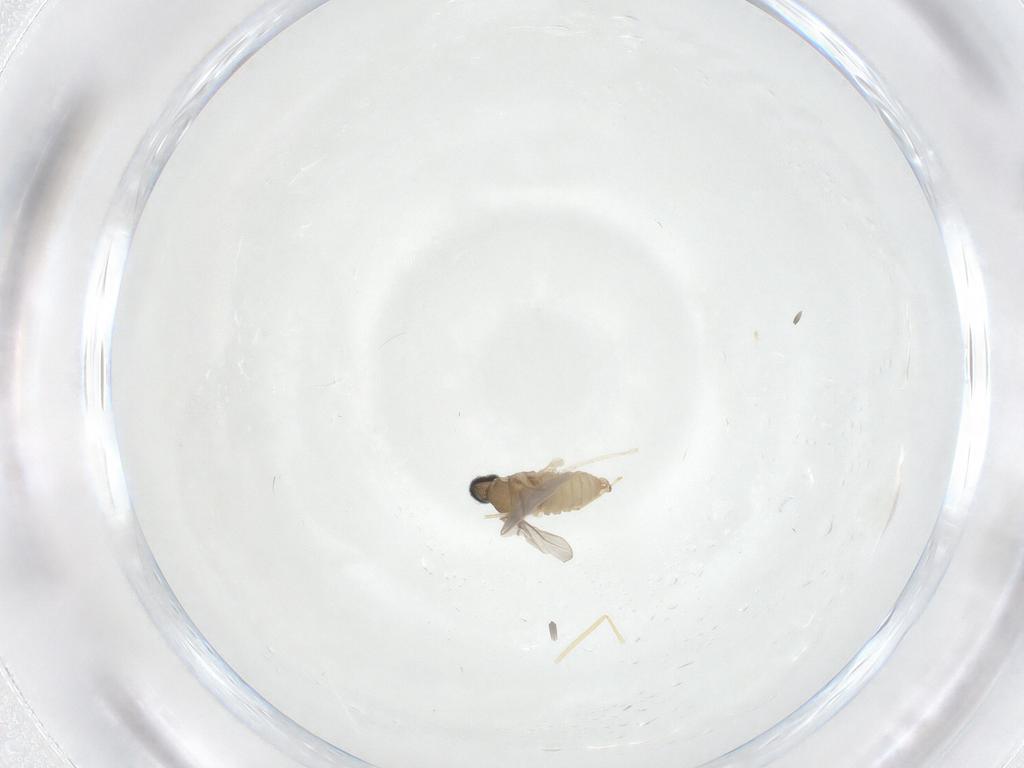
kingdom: Animalia
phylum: Arthropoda
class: Insecta
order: Diptera
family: Cecidomyiidae
